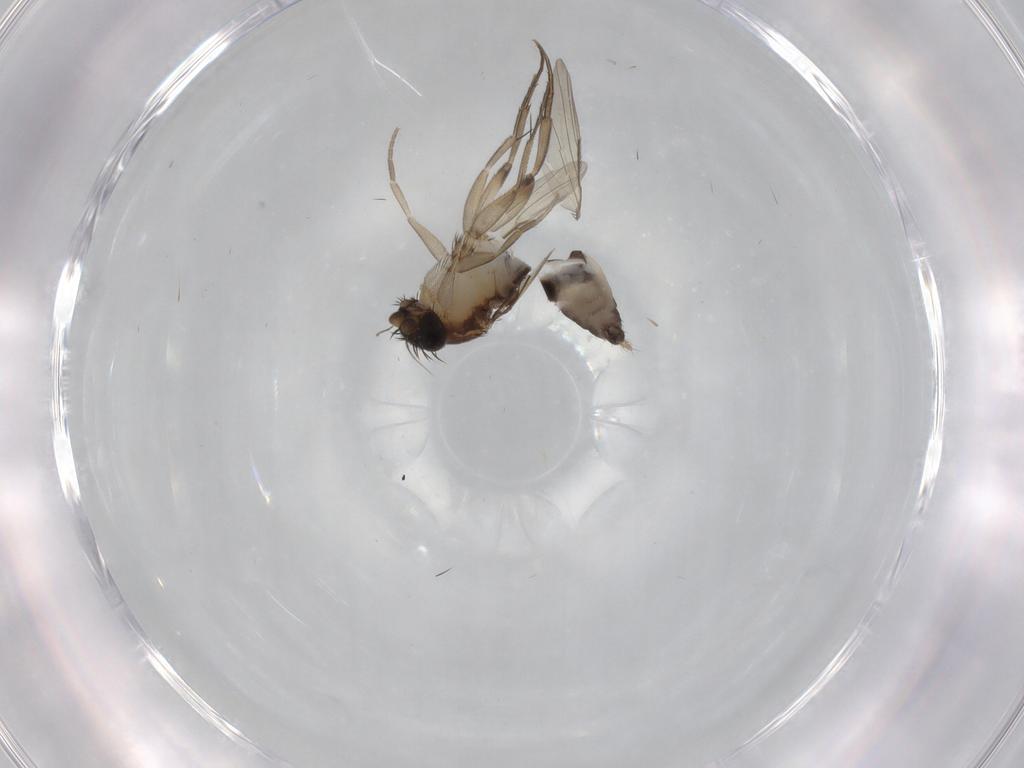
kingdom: Animalia
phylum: Arthropoda
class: Insecta
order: Diptera
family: Phoridae
